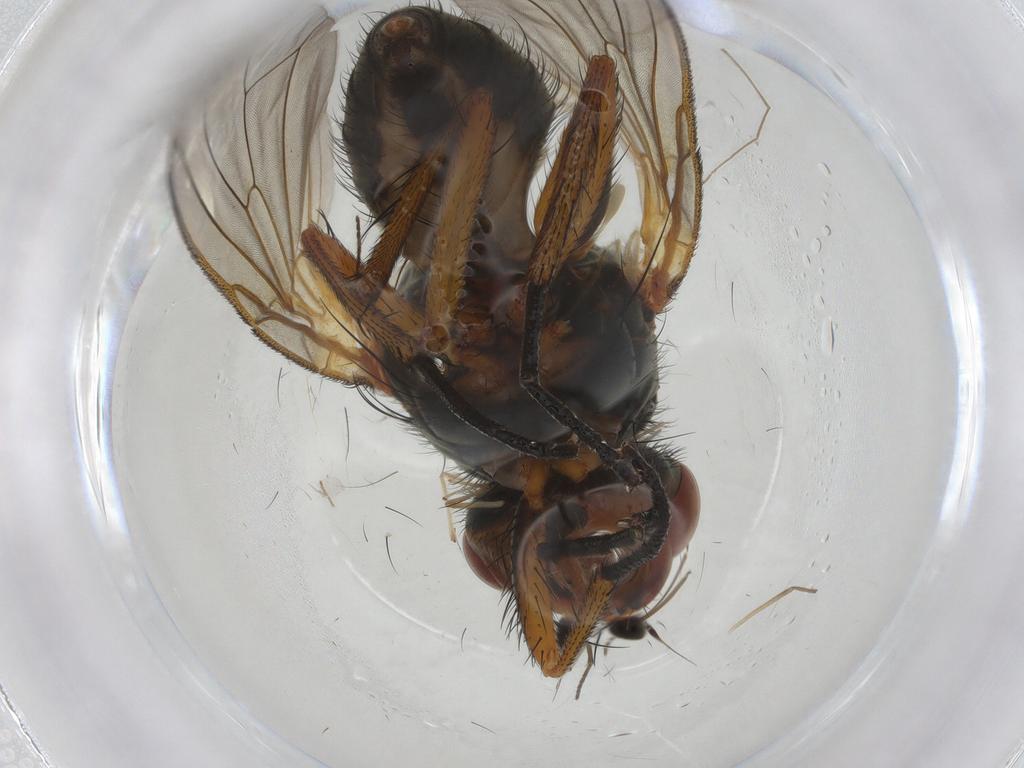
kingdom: Animalia
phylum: Arthropoda
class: Insecta
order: Diptera
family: Anthomyiidae
